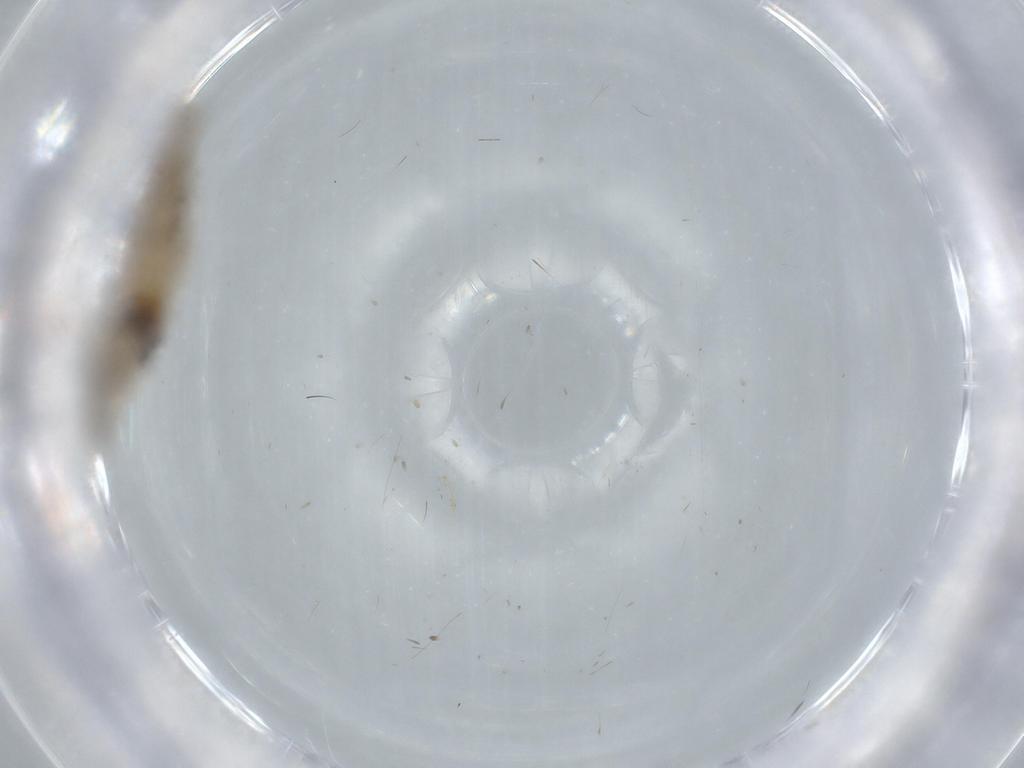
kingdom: Animalia
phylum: Arthropoda
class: Insecta
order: Lepidoptera
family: Tineidae
